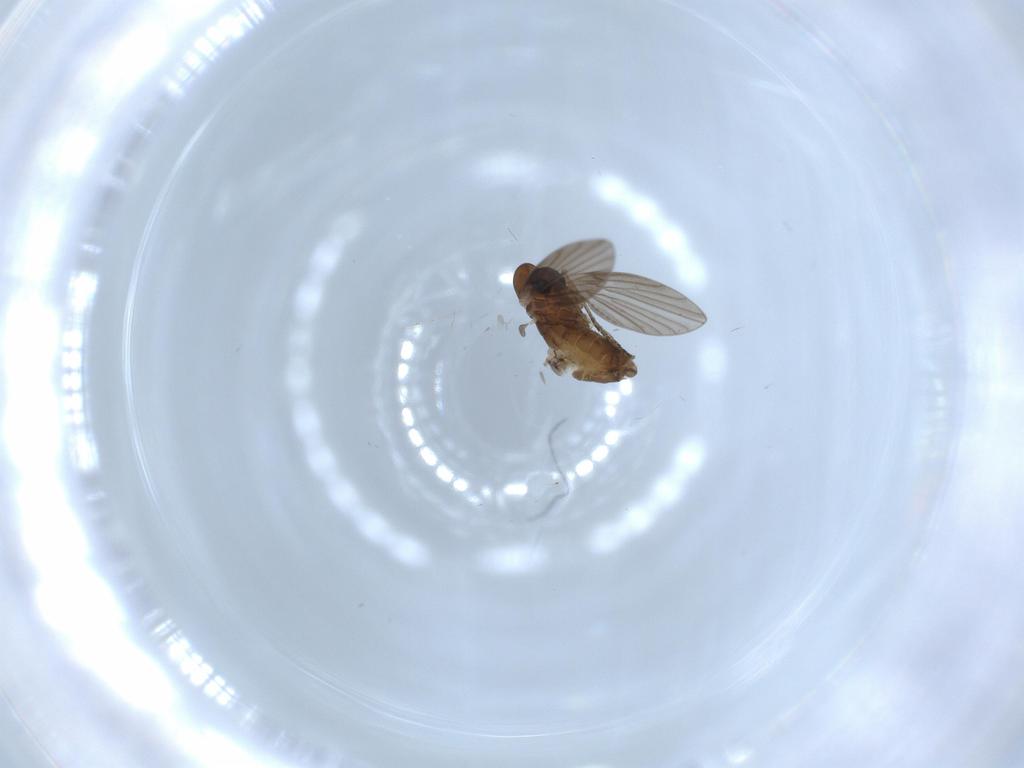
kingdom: Animalia
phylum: Arthropoda
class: Insecta
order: Diptera
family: Psychodidae
